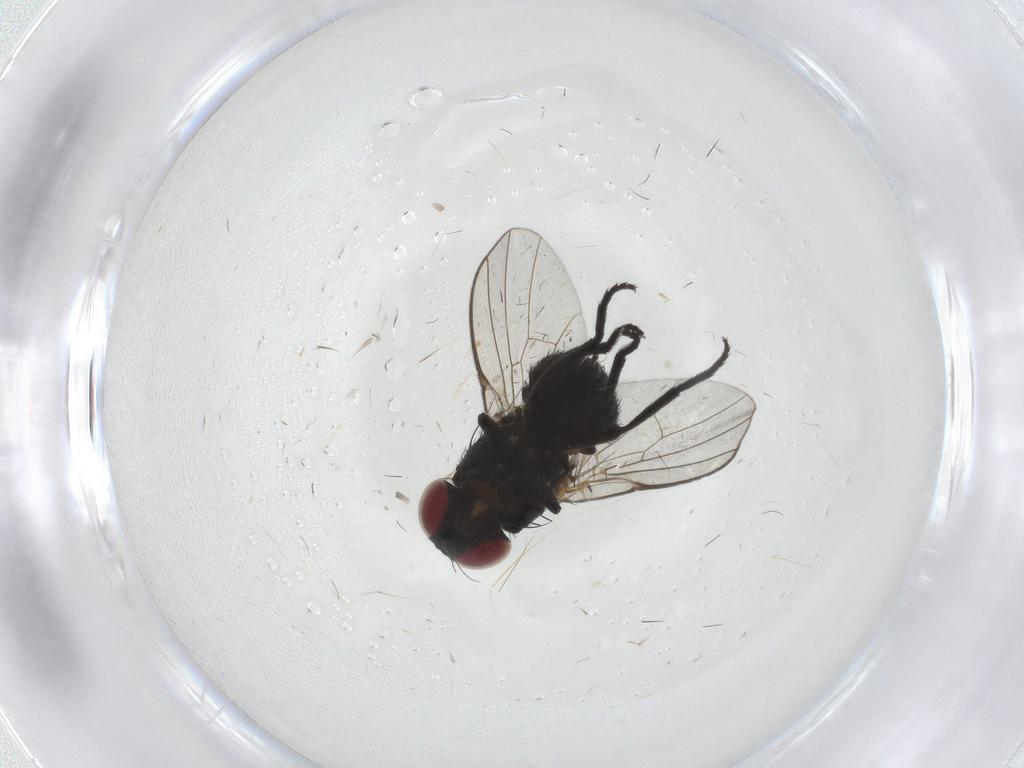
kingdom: Animalia
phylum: Arthropoda
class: Insecta
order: Diptera
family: Agromyzidae
